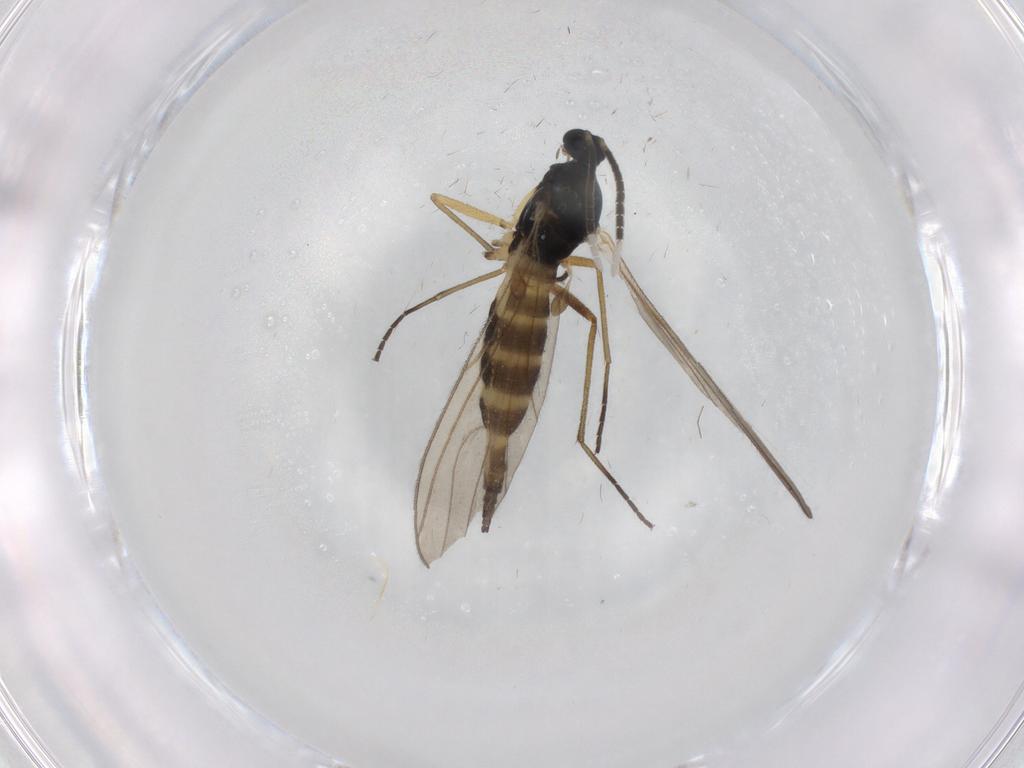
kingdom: Animalia
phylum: Arthropoda
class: Insecta
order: Diptera
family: Sciaridae
